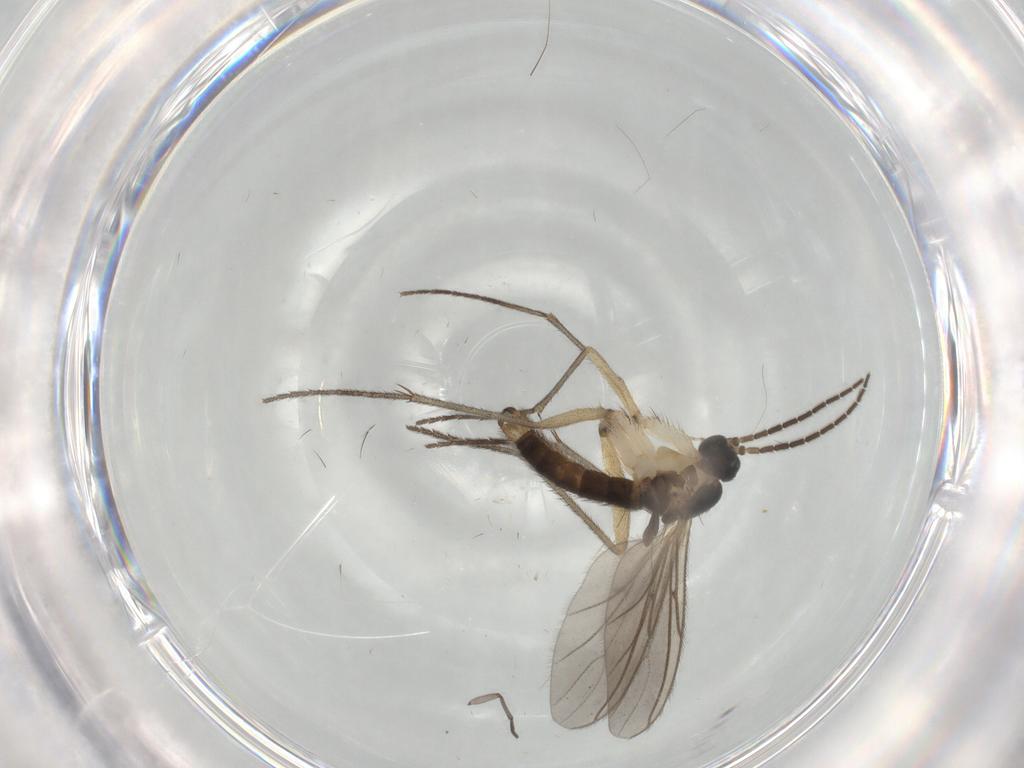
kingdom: Animalia
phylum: Arthropoda
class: Insecta
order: Diptera
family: Sciaridae
